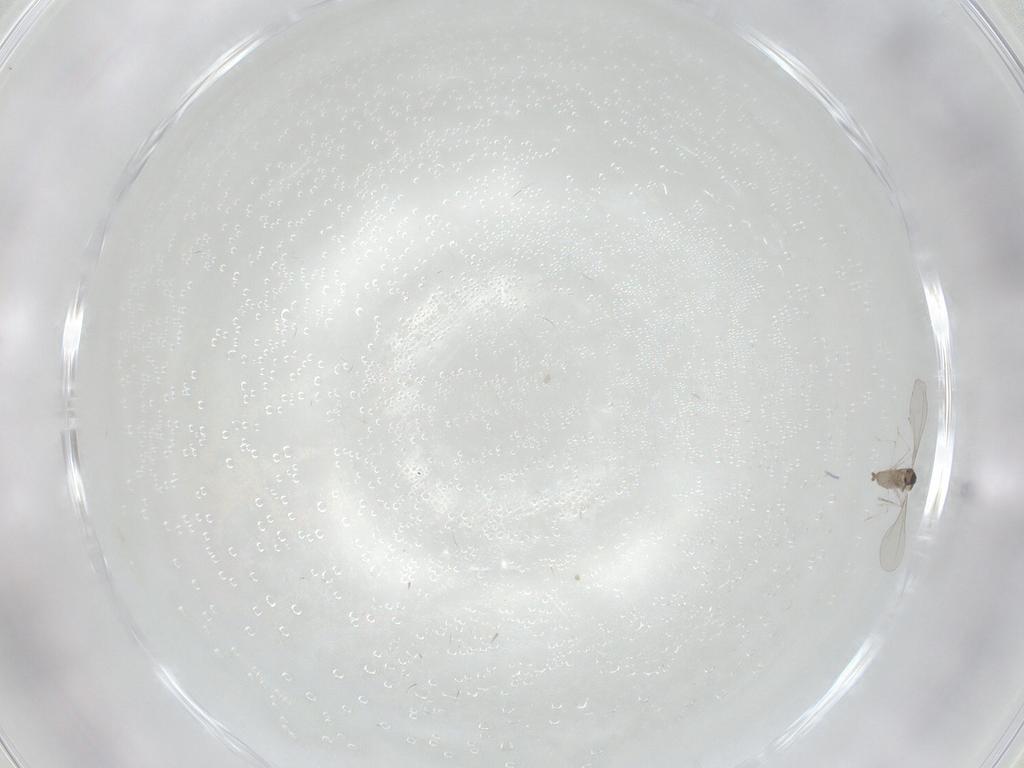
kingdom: Animalia
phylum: Arthropoda
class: Insecta
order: Diptera
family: Cecidomyiidae
